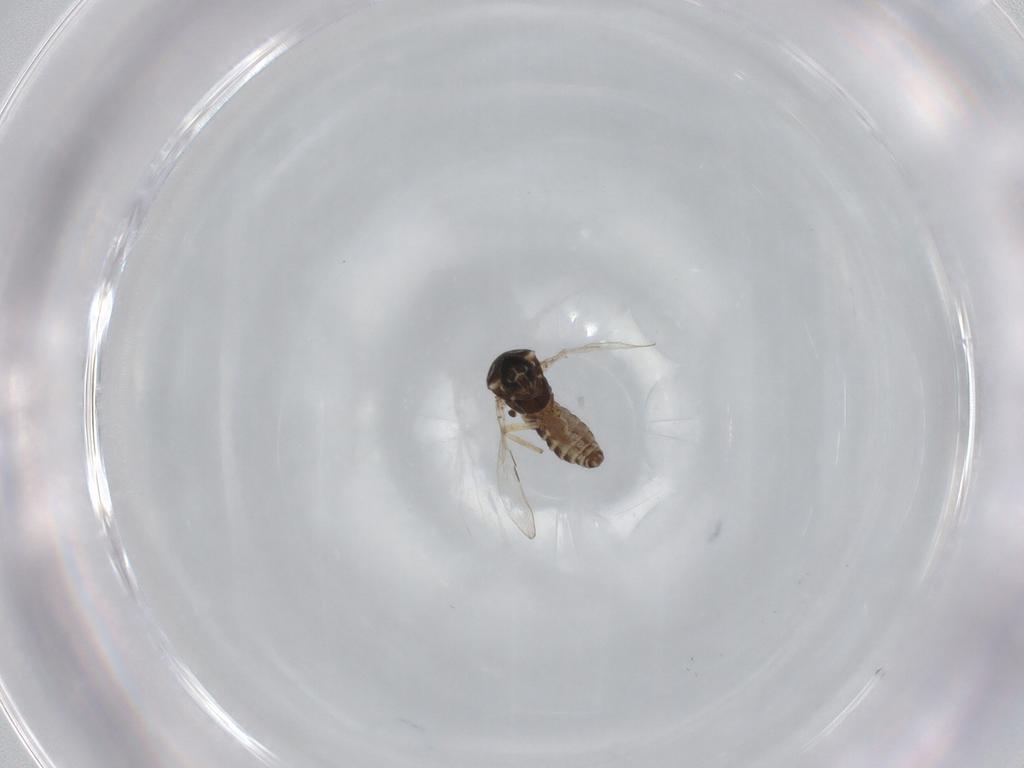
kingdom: Animalia
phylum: Arthropoda
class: Insecta
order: Diptera
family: Ceratopogonidae
